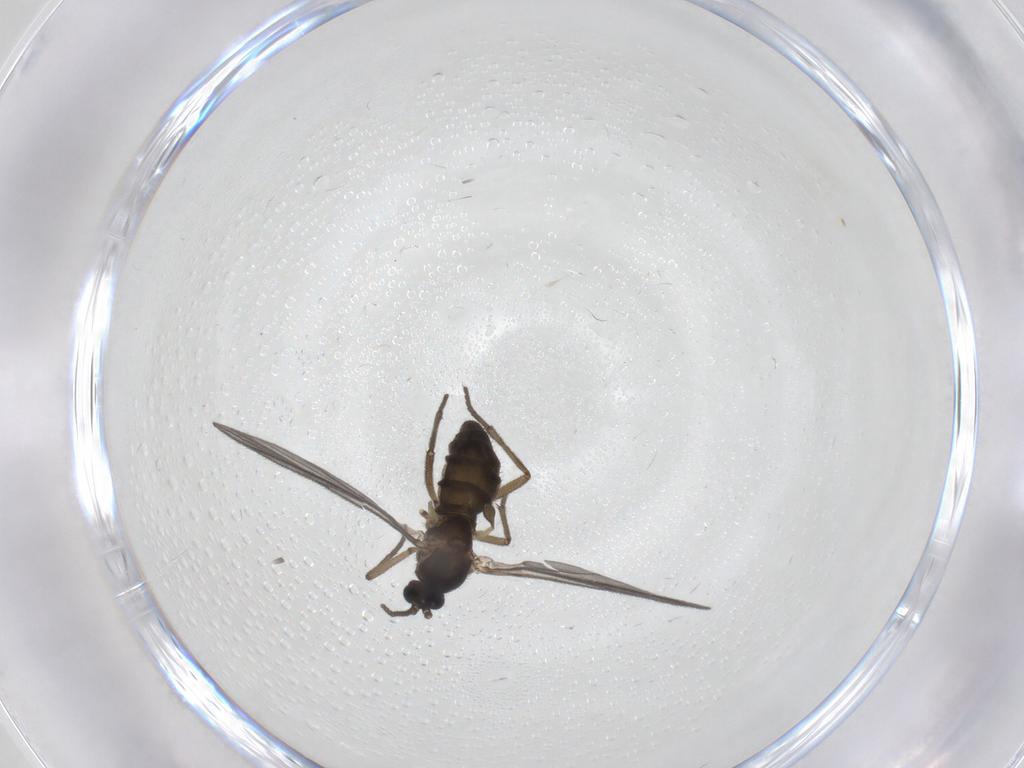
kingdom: Animalia
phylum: Arthropoda
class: Insecta
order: Diptera
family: Sciaridae
